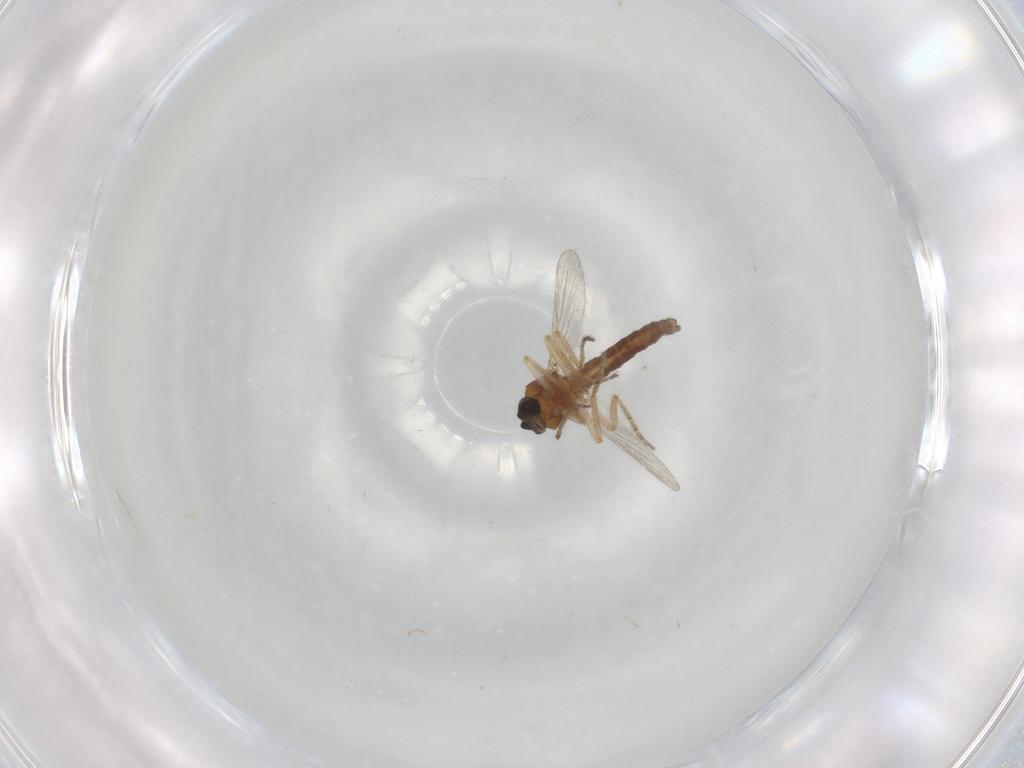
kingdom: Animalia
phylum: Arthropoda
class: Insecta
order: Diptera
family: Ceratopogonidae
